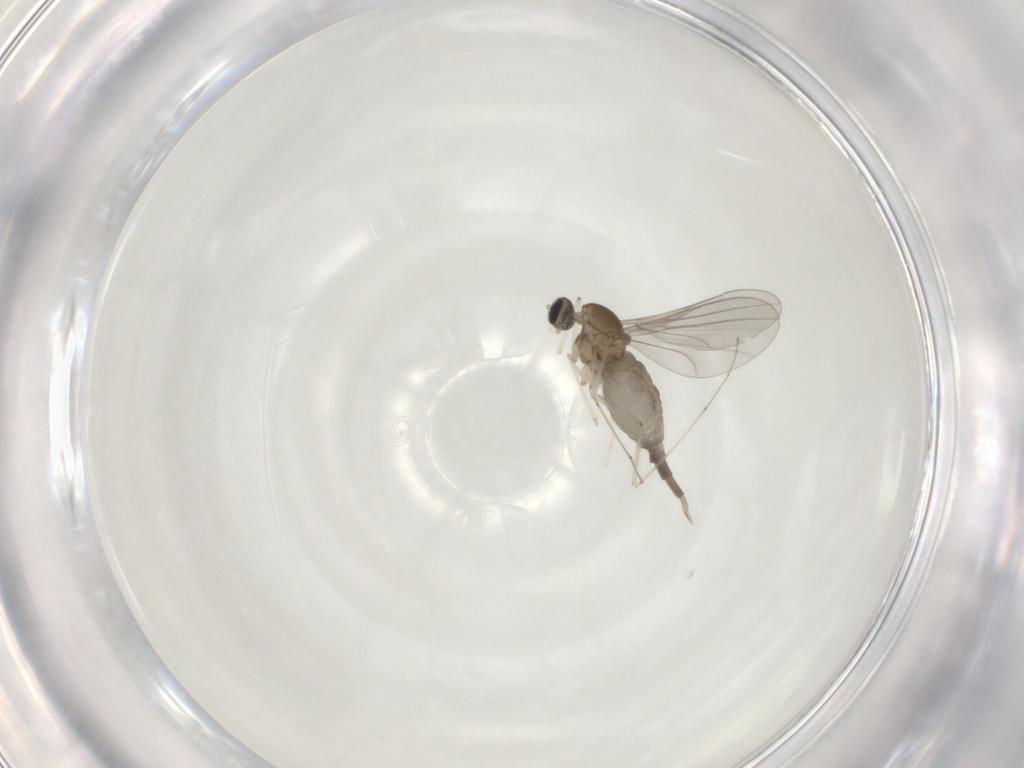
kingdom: Animalia
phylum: Arthropoda
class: Insecta
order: Diptera
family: Cecidomyiidae
